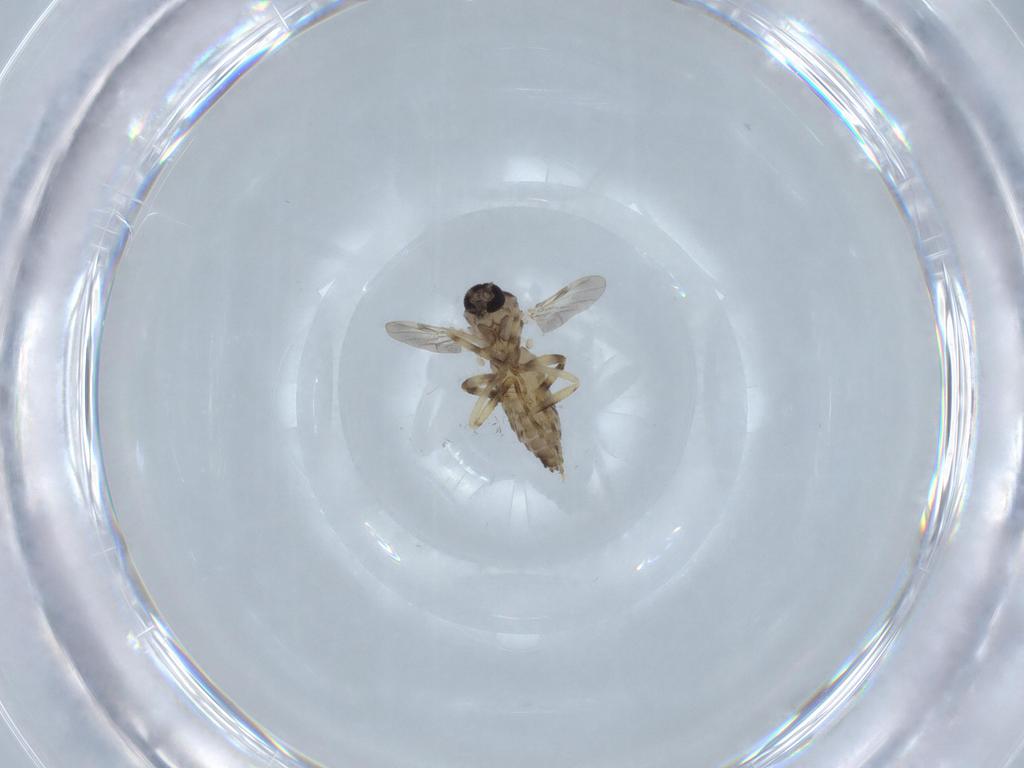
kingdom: Animalia
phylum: Arthropoda
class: Insecta
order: Diptera
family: Ceratopogonidae
